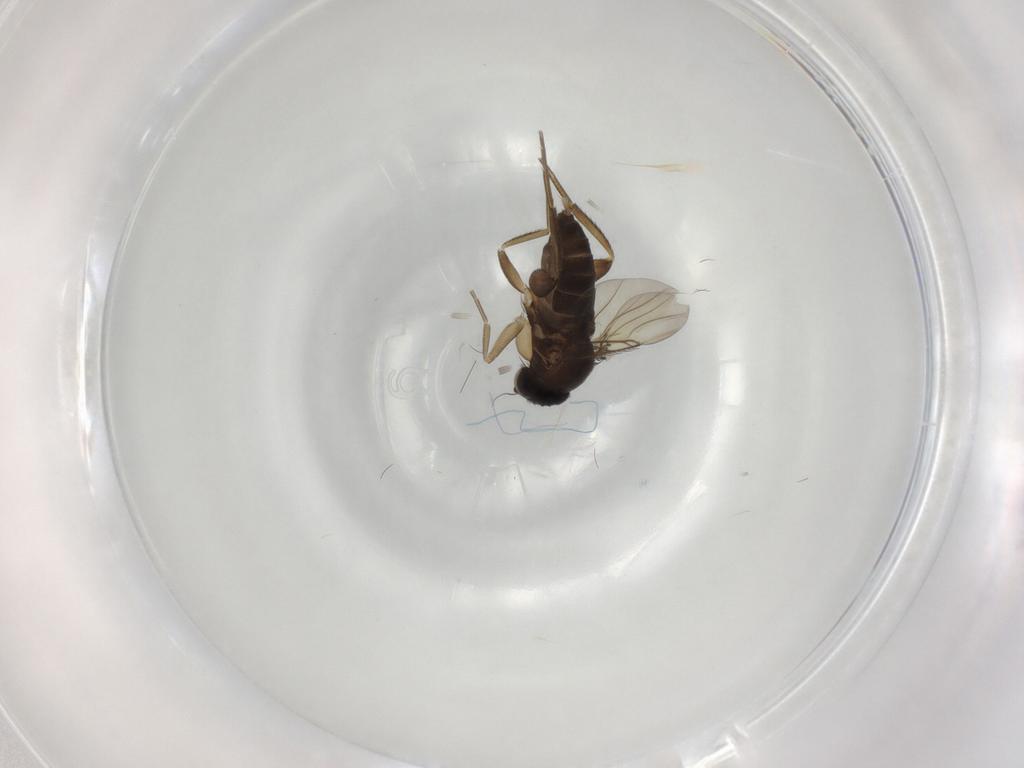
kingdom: Animalia
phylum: Arthropoda
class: Insecta
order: Diptera
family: Phoridae
